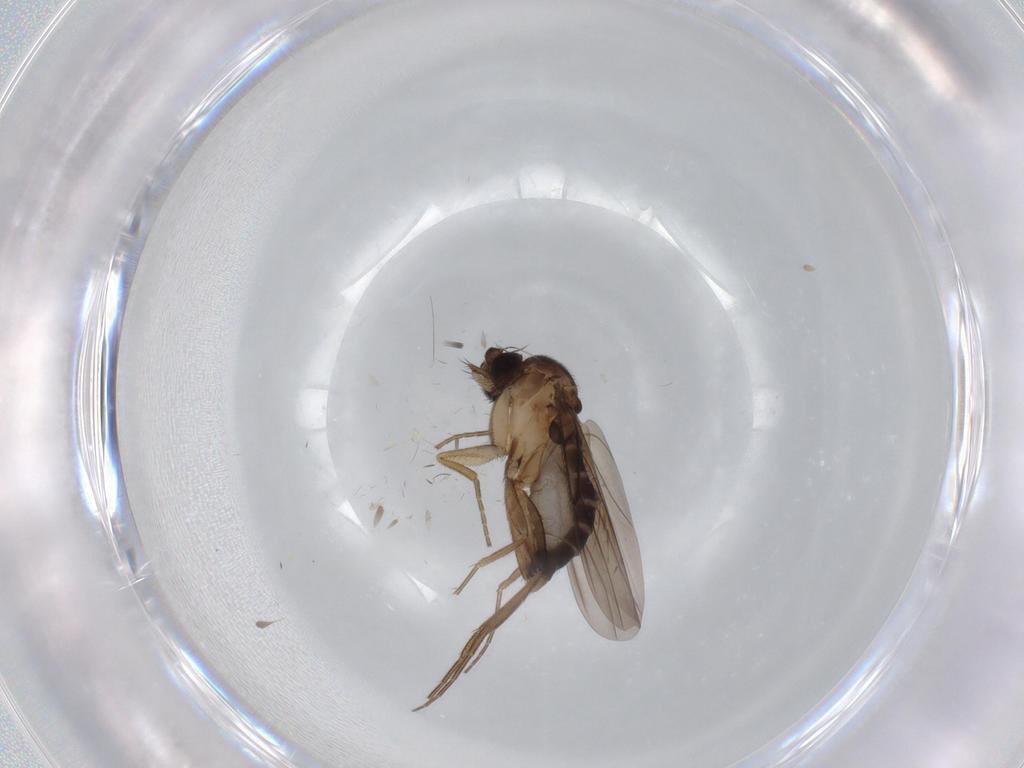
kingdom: Animalia
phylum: Arthropoda
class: Insecta
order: Diptera
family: Phoridae
